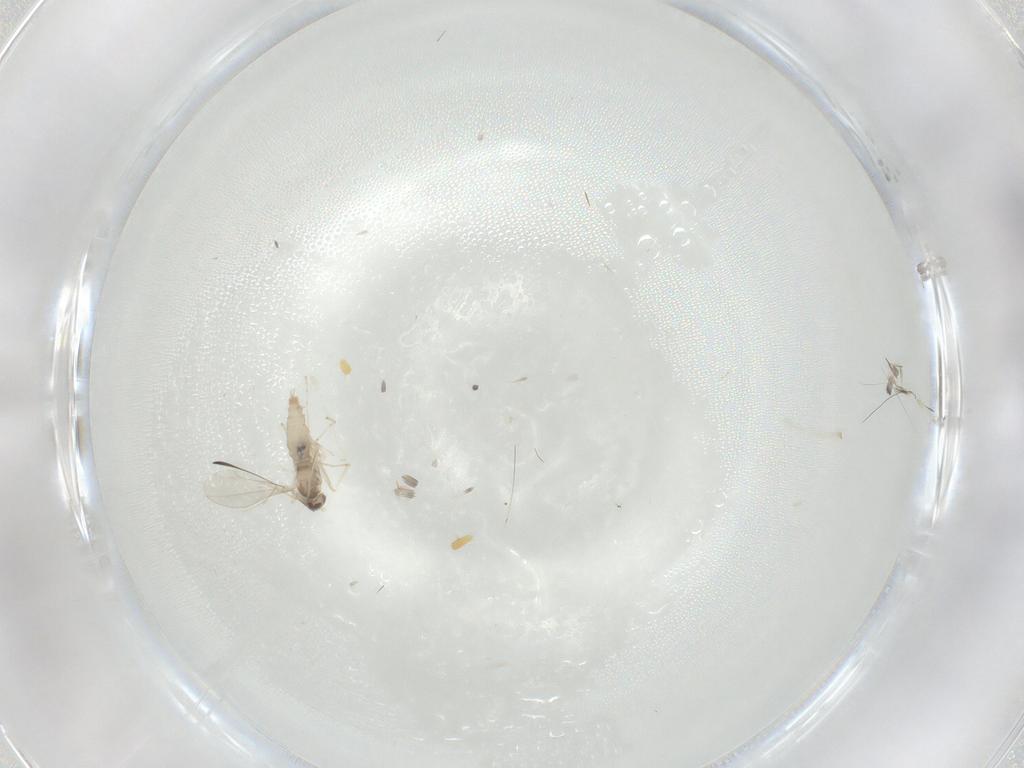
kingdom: Animalia
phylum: Arthropoda
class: Insecta
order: Diptera
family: Cecidomyiidae
